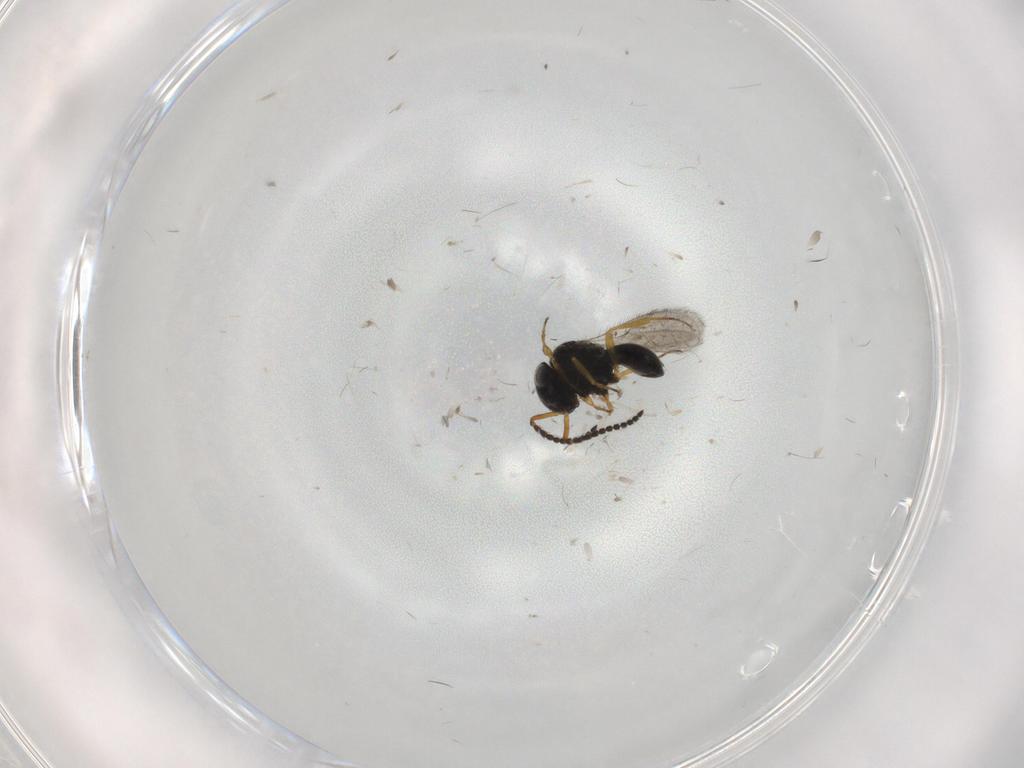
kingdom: Animalia
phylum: Arthropoda
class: Insecta
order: Hymenoptera
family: Scelionidae
